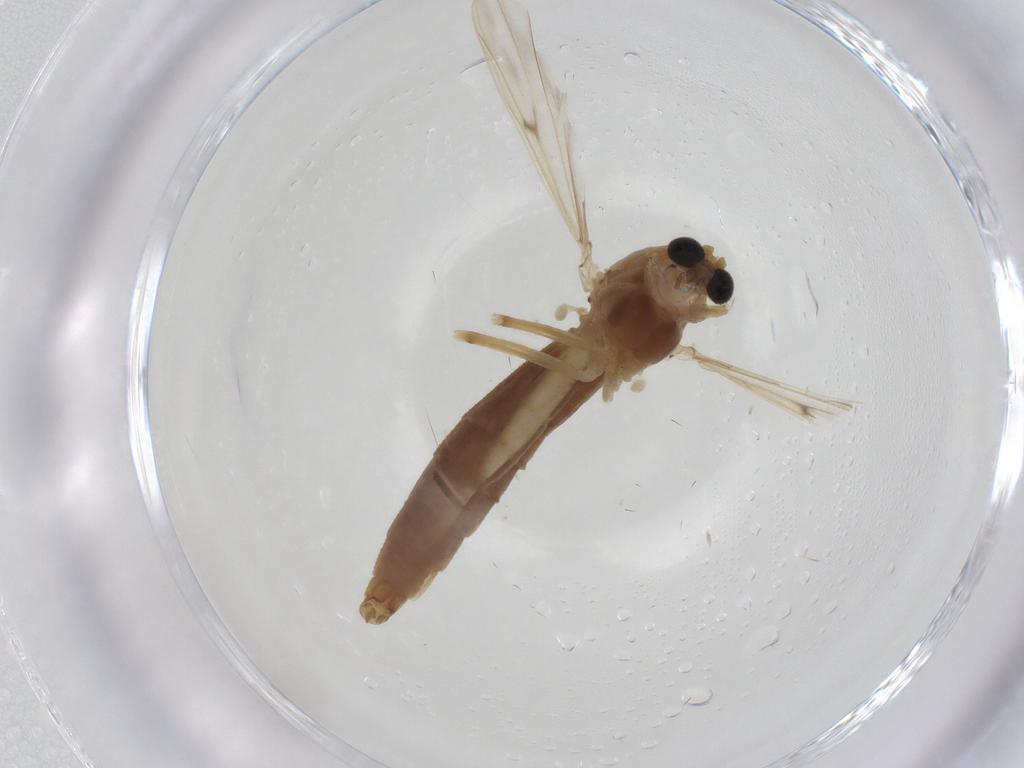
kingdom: Animalia
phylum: Arthropoda
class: Insecta
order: Diptera
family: Chironomidae
